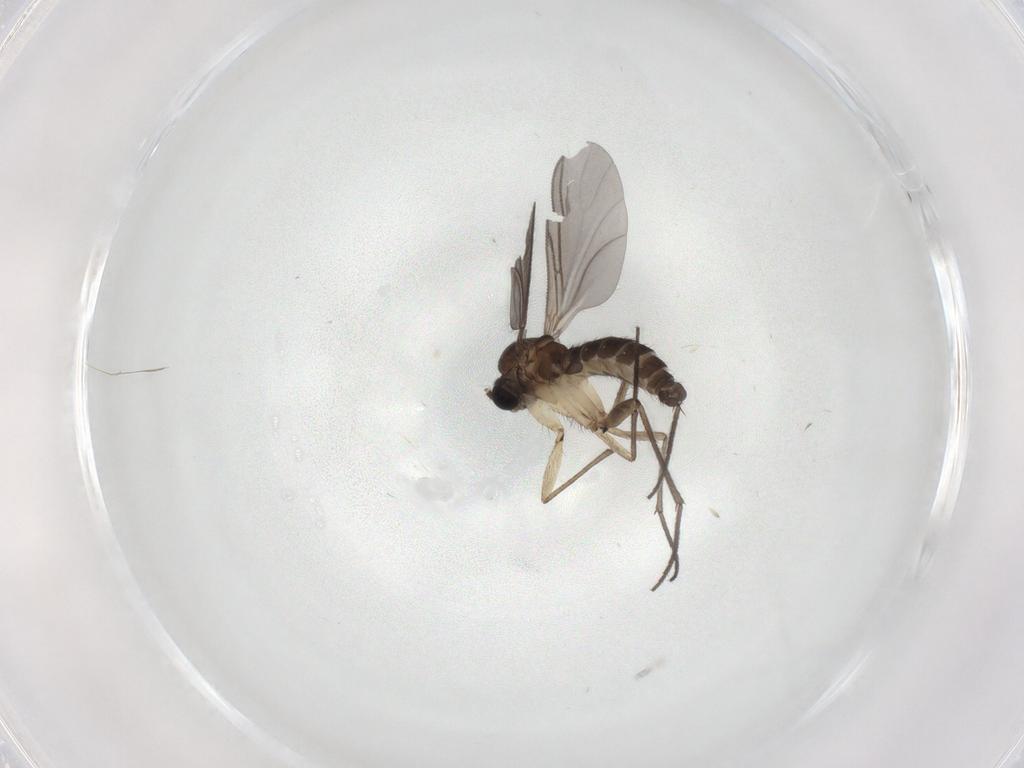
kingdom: Animalia
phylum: Arthropoda
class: Insecta
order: Diptera
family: Sciaridae
